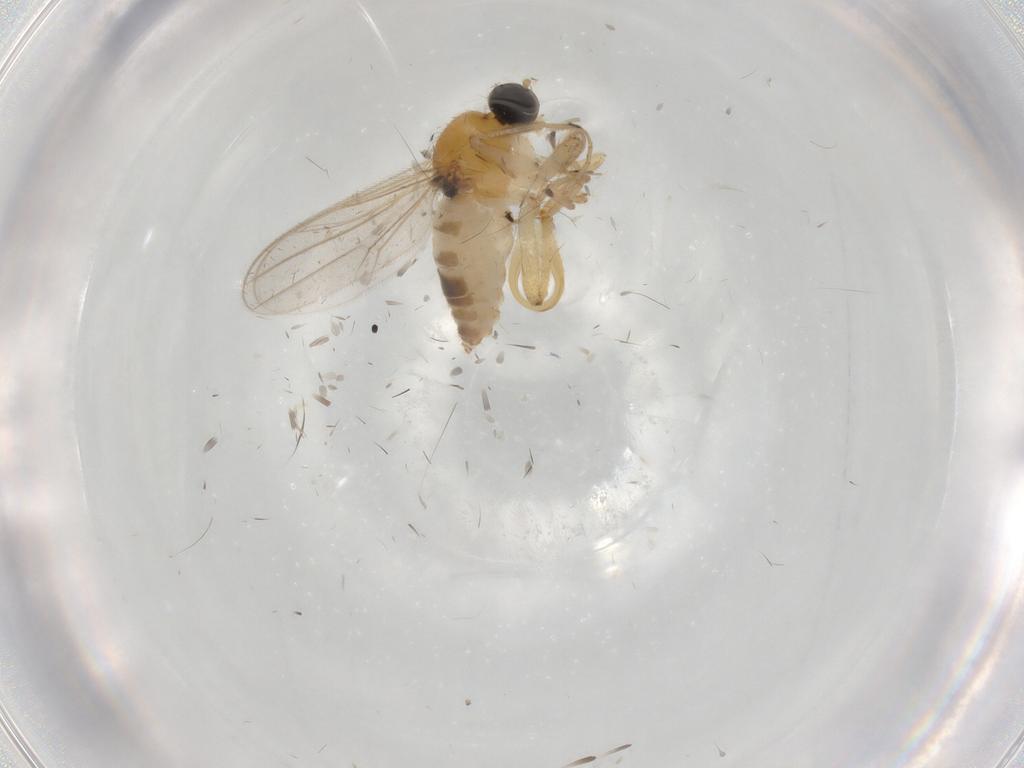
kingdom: Animalia
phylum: Arthropoda
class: Insecta
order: Diptera
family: Hybotidae
